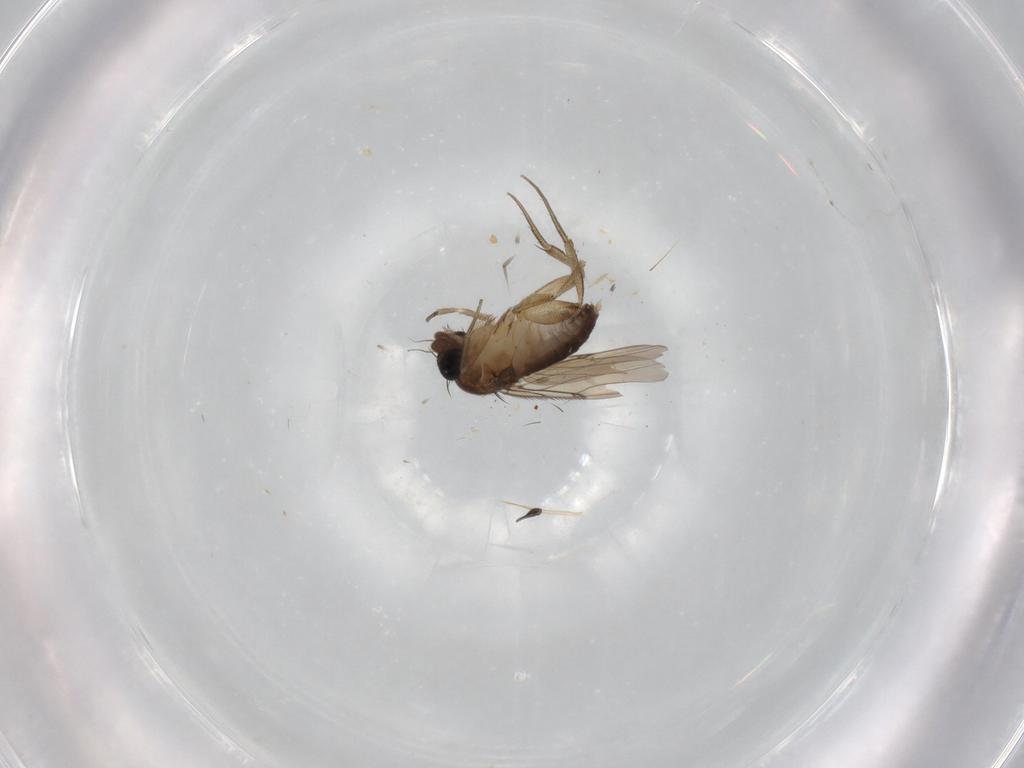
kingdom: Animalia
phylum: Arthropoda
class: Insecta
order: Diptera
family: Phoridae
